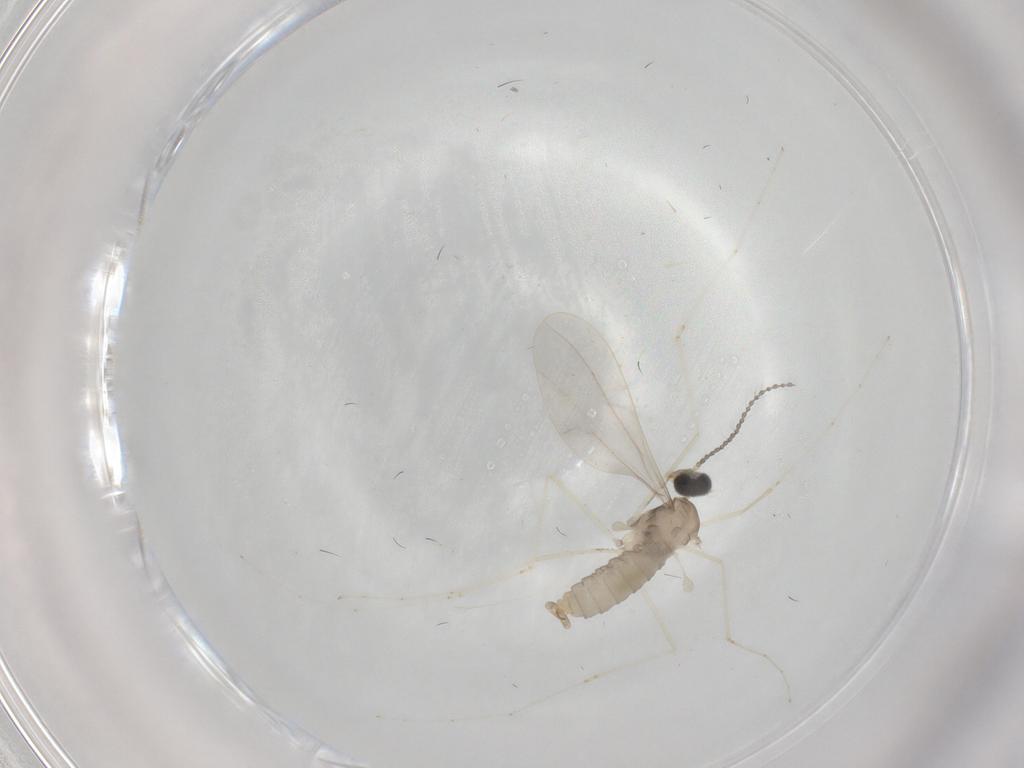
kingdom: Animalia
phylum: Arthropoda
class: Insecta
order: Diptera
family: Cecidomyiidae
